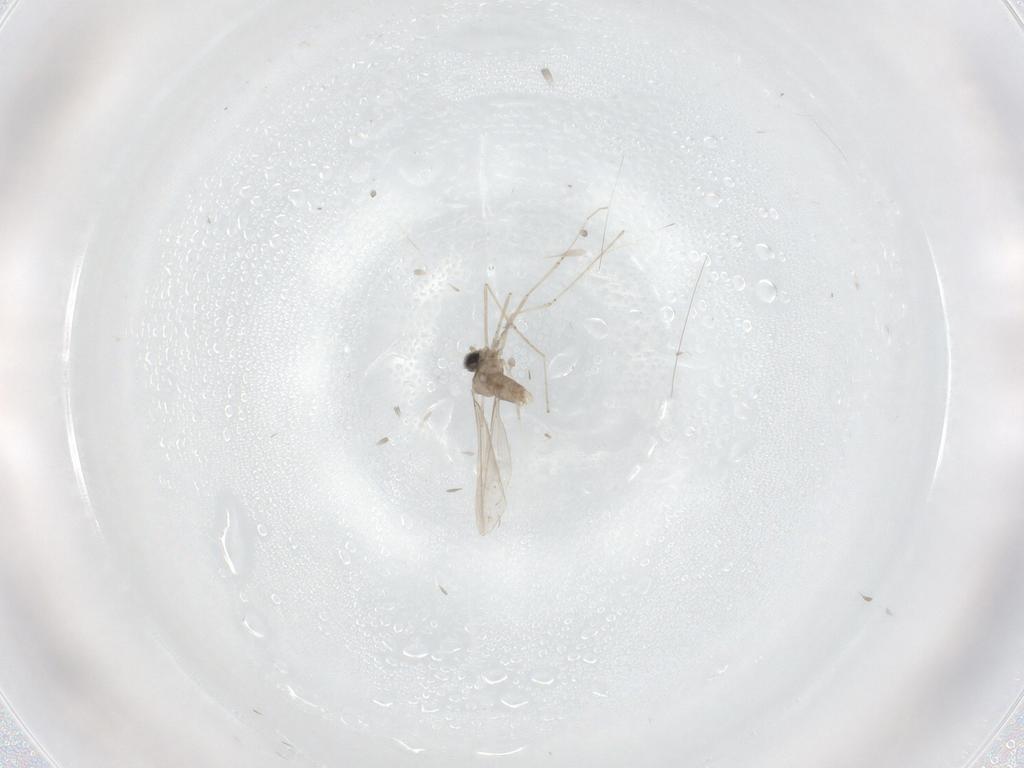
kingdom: Animalia
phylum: Arthropoda
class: Insecta
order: Diptera
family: Cecidomyiidae
